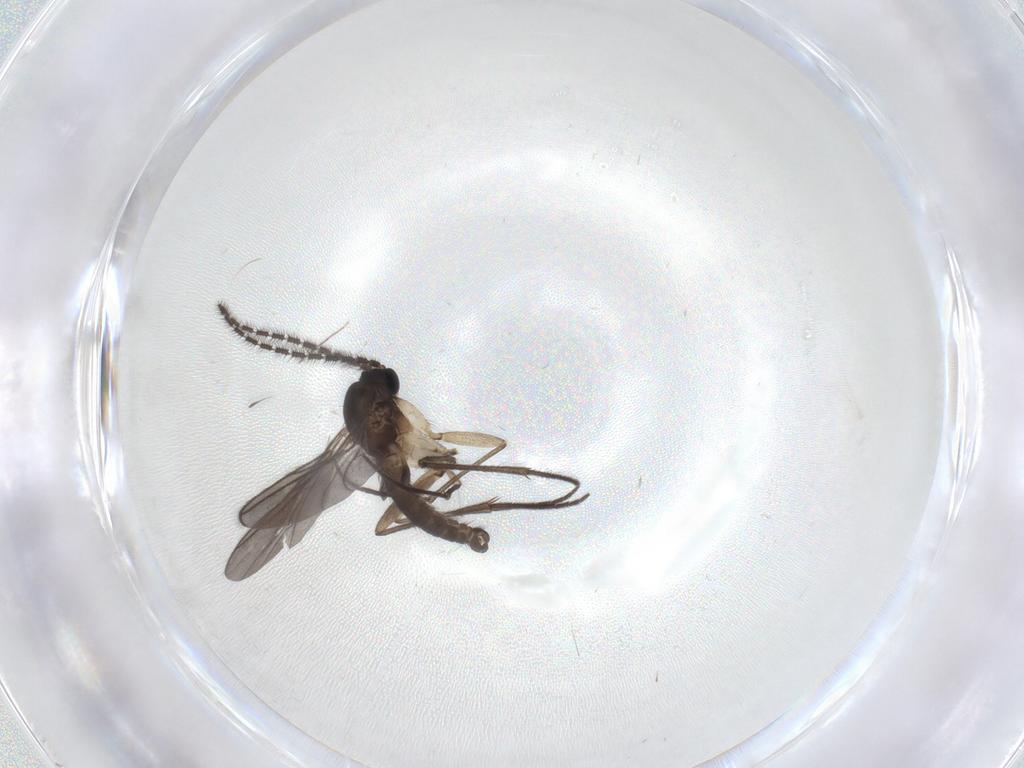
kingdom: Animalia
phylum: Arthropoda
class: Insecta
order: Diptera
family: Sciaridae
